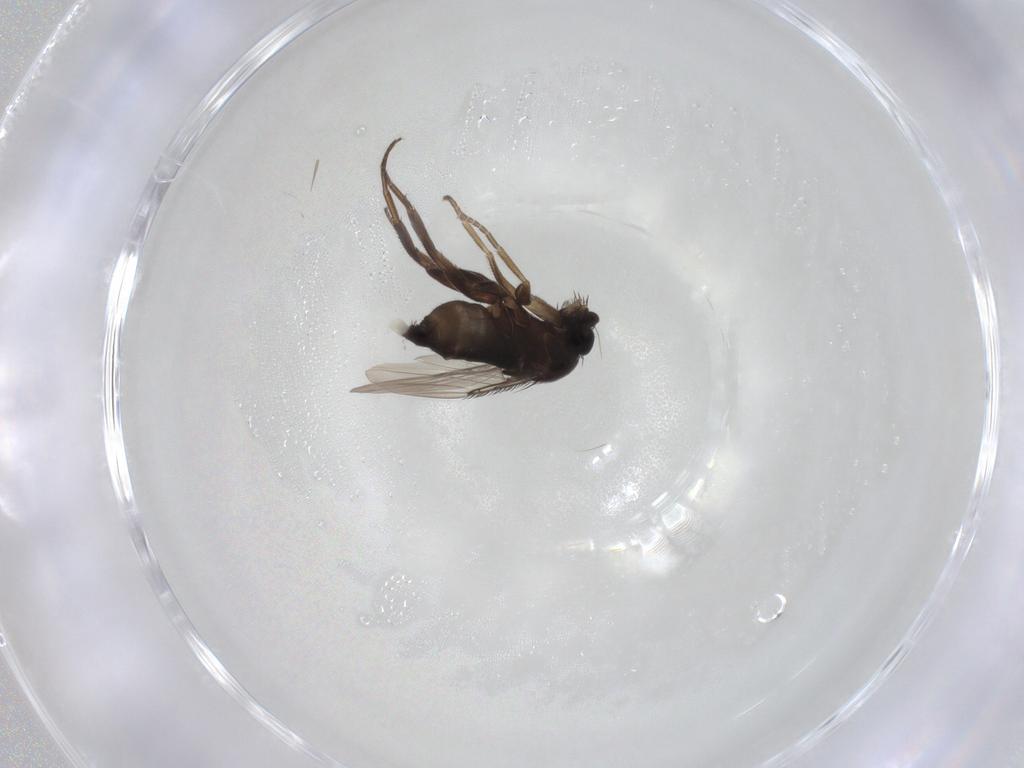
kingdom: Animalia
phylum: Arthropoda
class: Insecta
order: Diptera
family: Phoridae
